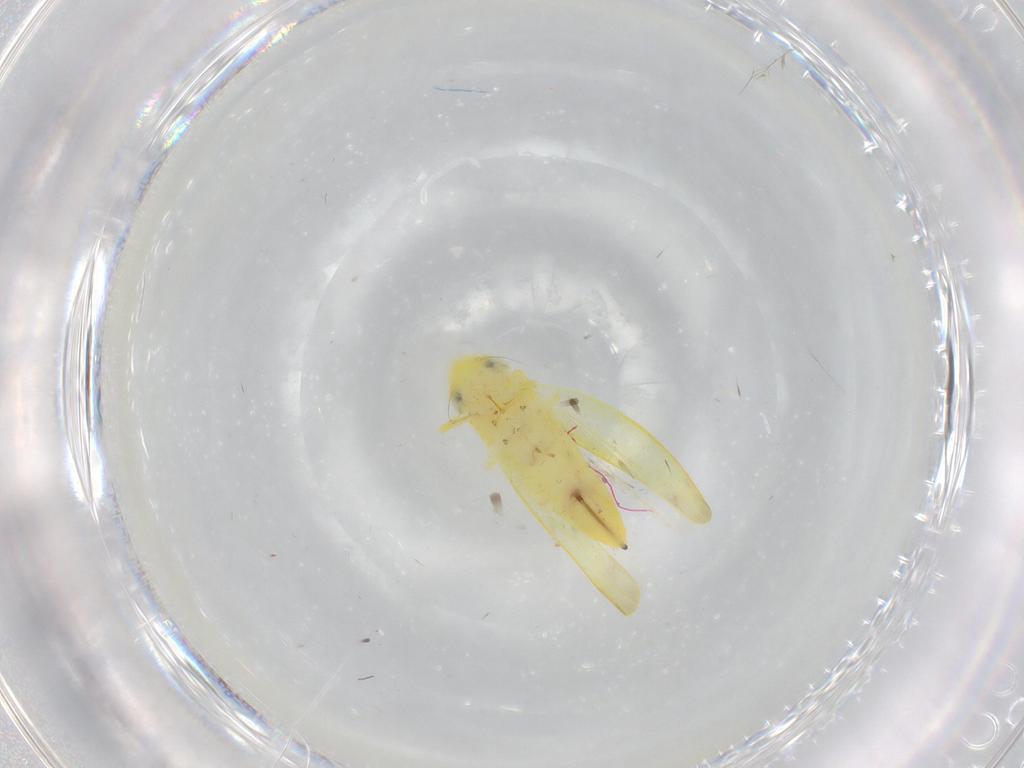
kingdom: Animalia
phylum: Arthropoda
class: Insecta
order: Hemiptera
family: Cicadellidae
